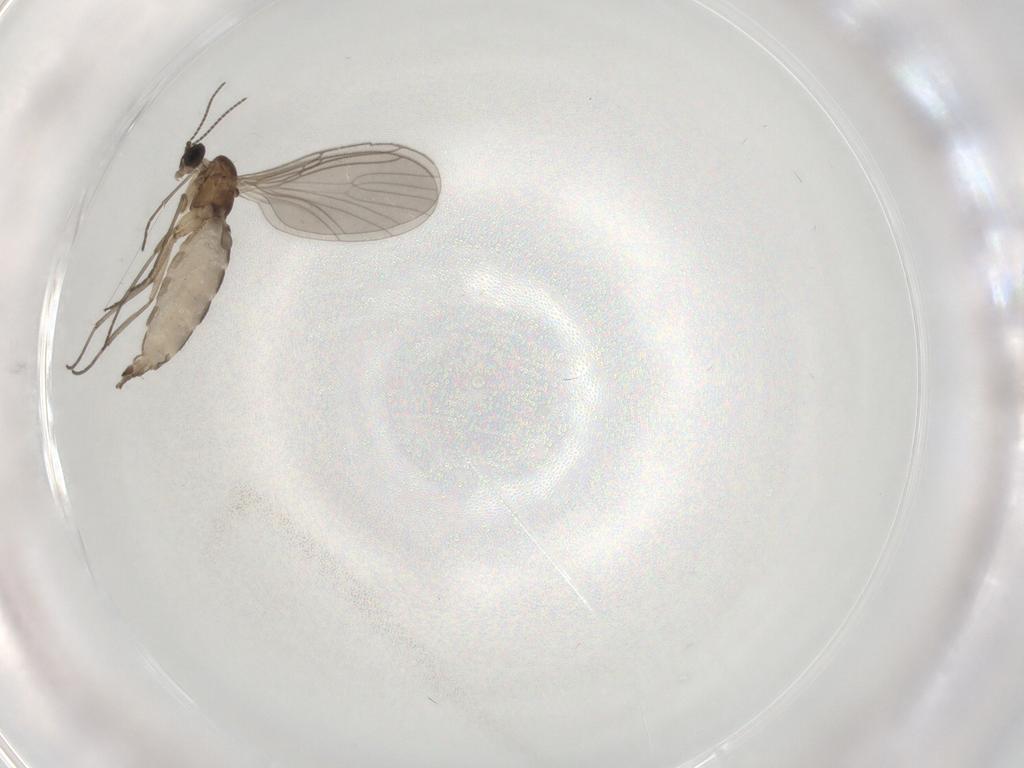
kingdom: Animalia
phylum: Arthropoda
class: Insecta
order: Diptera
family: Sciaridae
